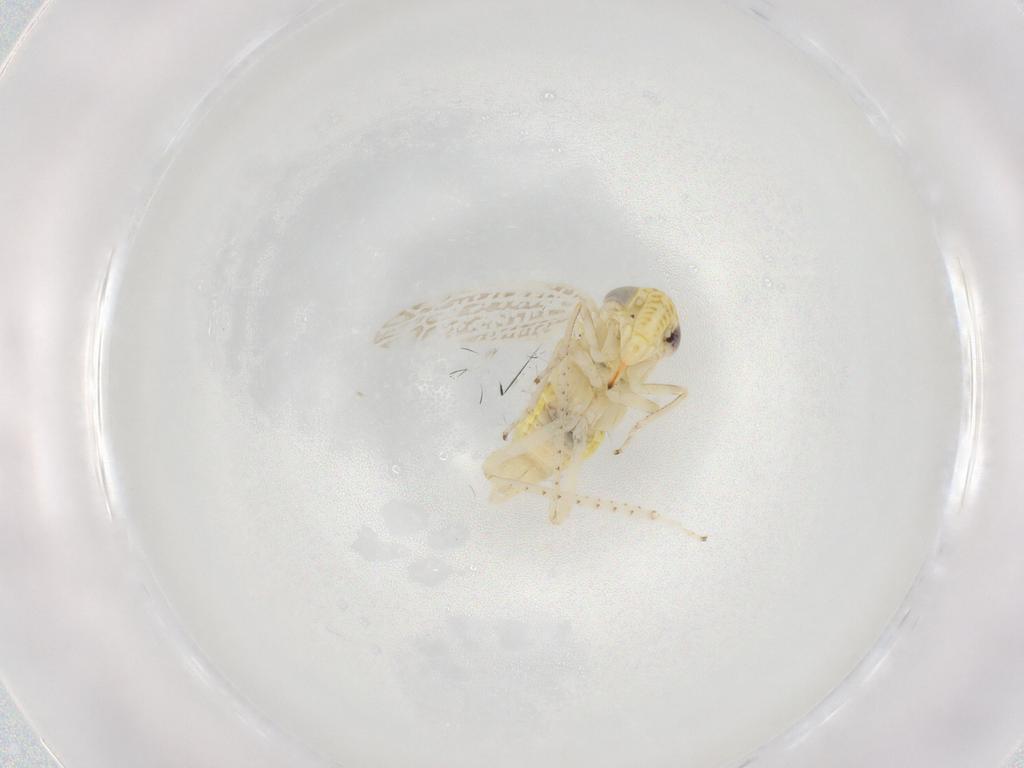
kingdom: Animalia
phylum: Arthropoda
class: Insecta
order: Hemiptera
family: Cicadellidae
